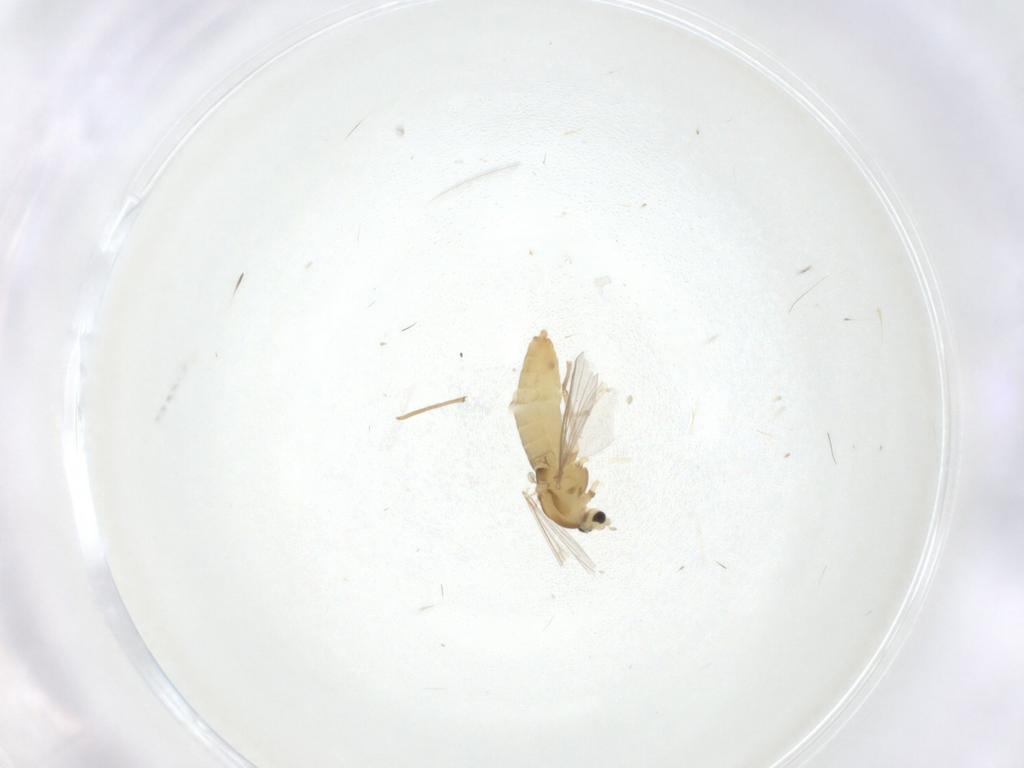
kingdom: Animalia
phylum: Arthropoda
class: Insecta
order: Diptera
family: Chironomidae
